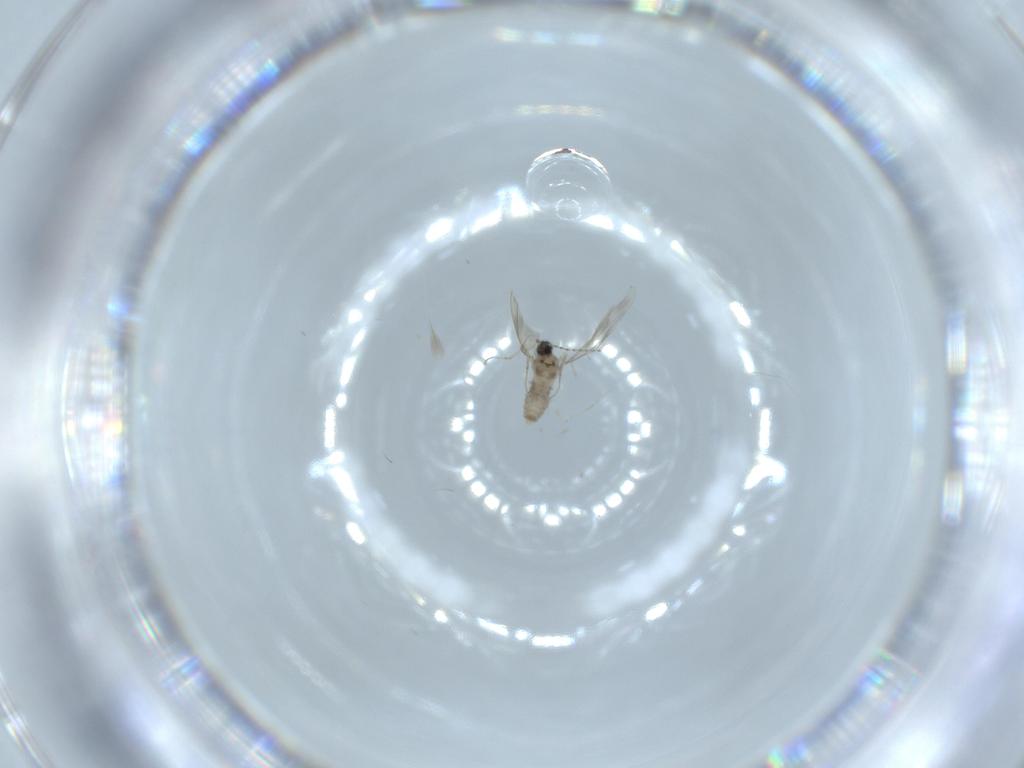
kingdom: Animalia
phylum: Arthropoda
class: Insecta
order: Diptera
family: Cecidomyiidae
